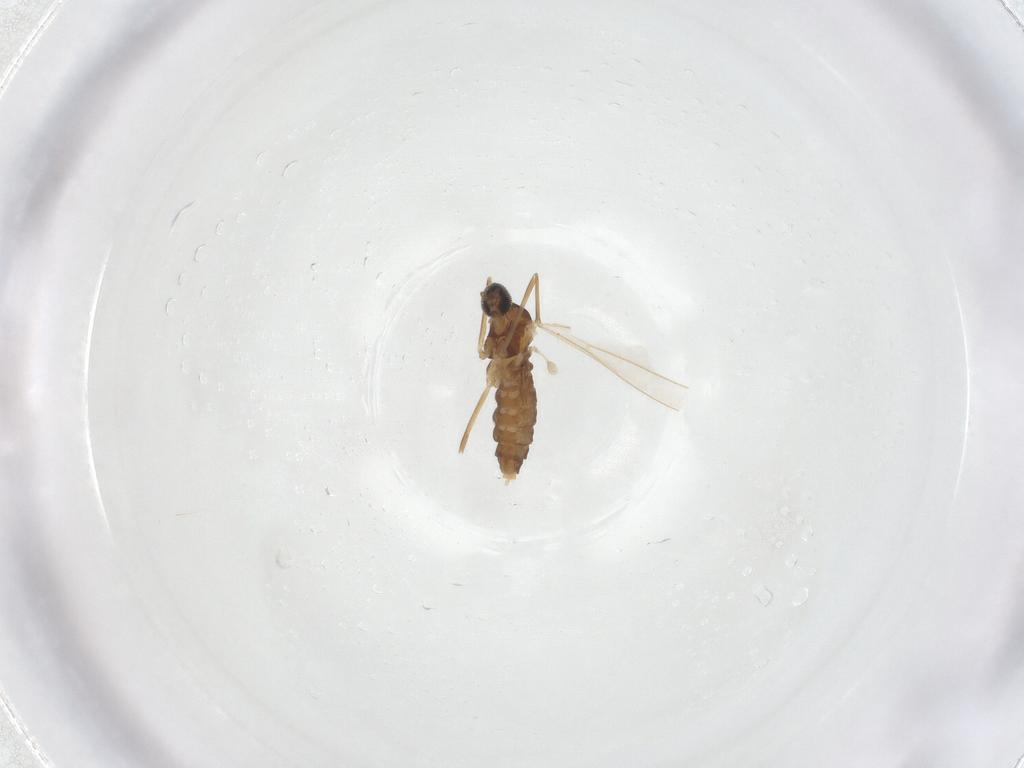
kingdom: Animalia
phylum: Arthropoda
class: Insecta
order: Diptera
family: Cecidomyiidae
